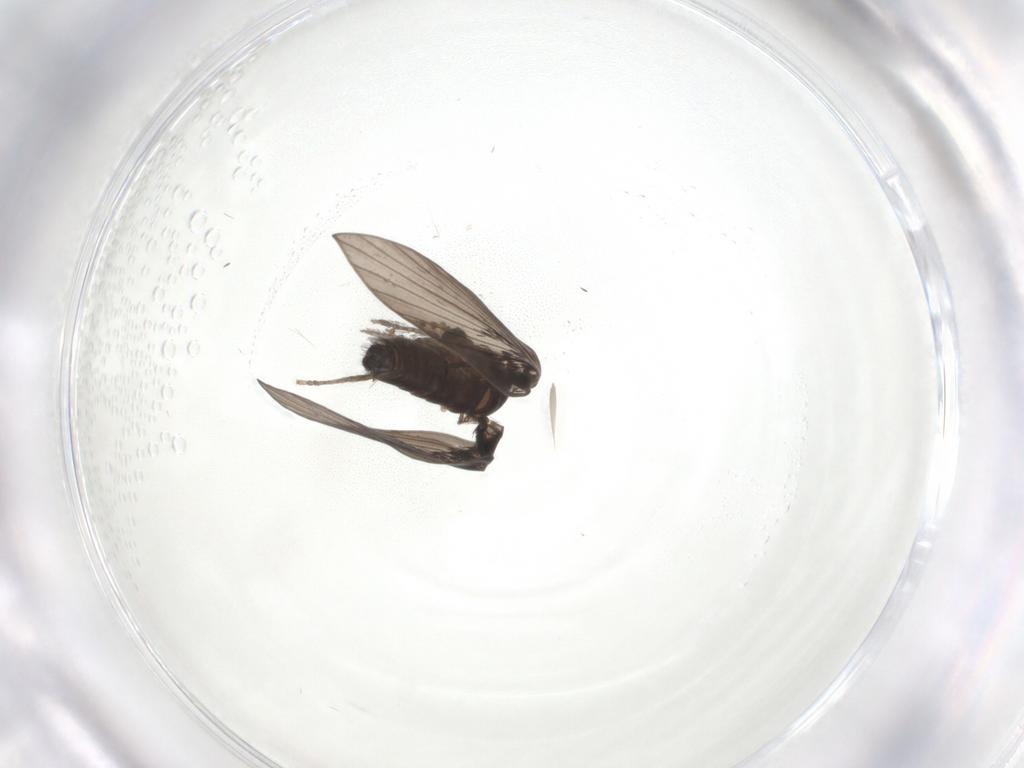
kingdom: Animalia
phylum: Arthropoda
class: Insecta
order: Diptera
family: Psychodidae
